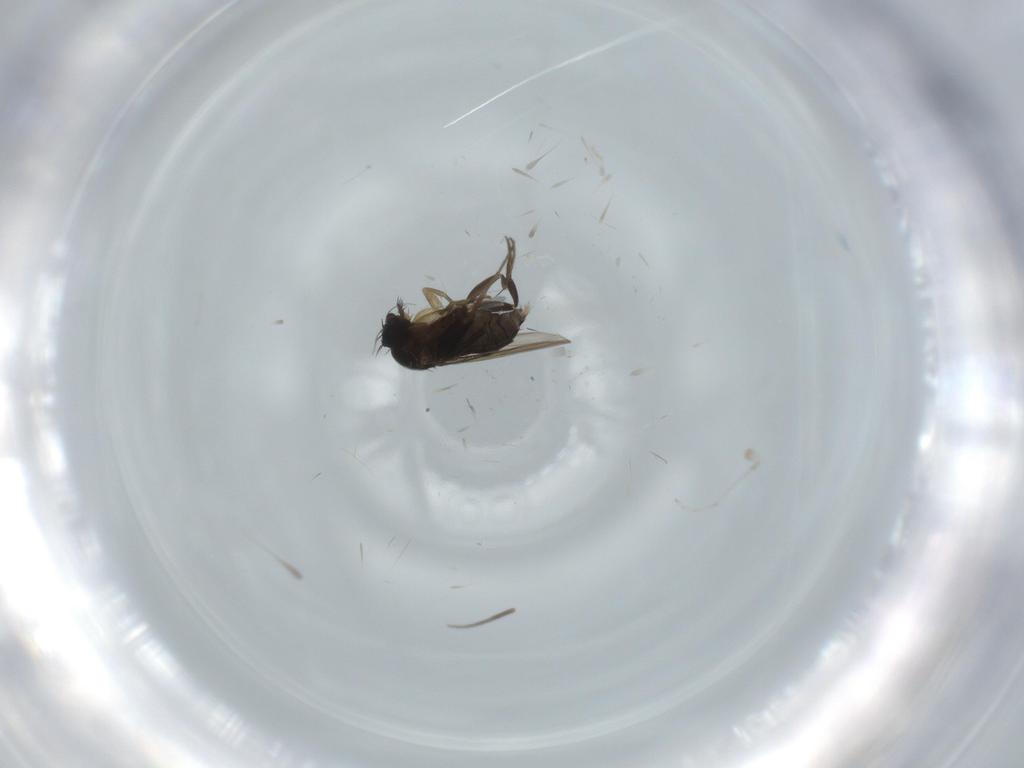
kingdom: Animalia
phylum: Arthropoda
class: Insecta
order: Diptera
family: Phoridae
